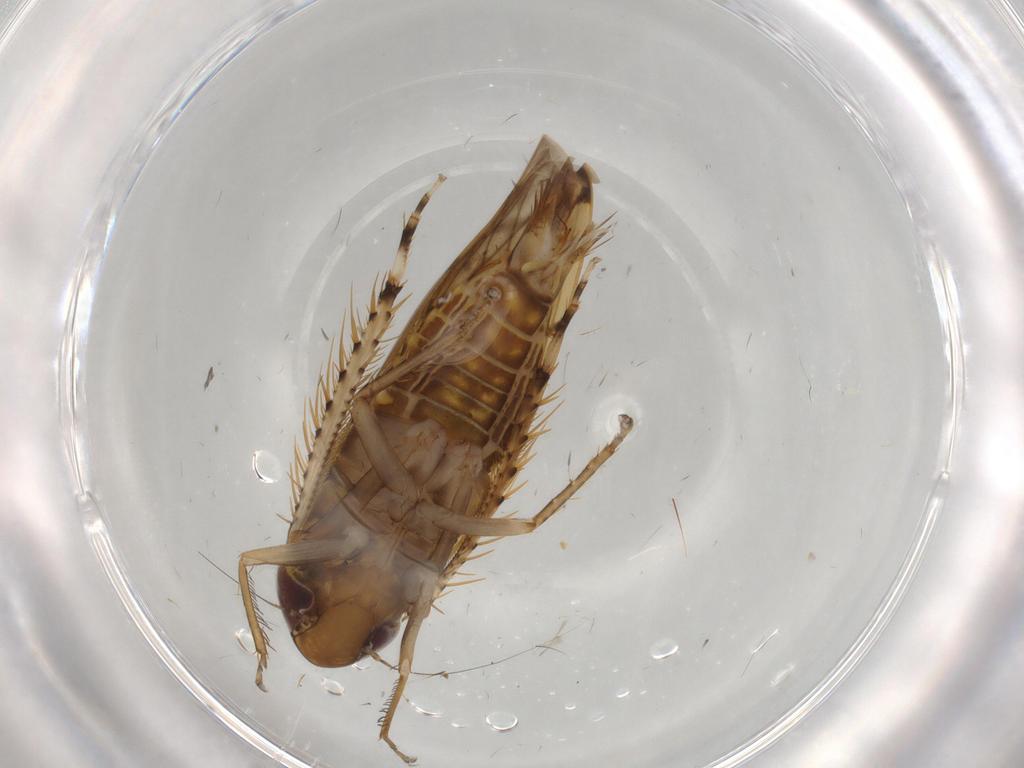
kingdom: Animalia
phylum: Arthropoda
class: Insecta
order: Hemiptera
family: Cicadellidae
